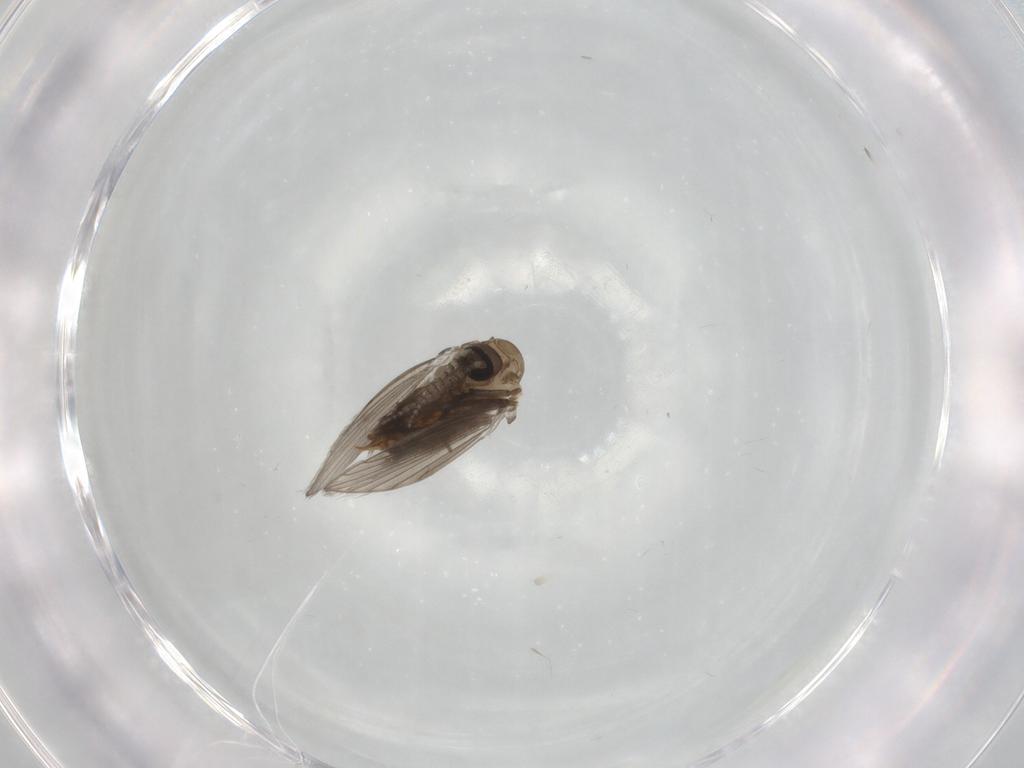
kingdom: Animalia
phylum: Arthropoda
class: Insecta
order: Diptera
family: Psychodidae
